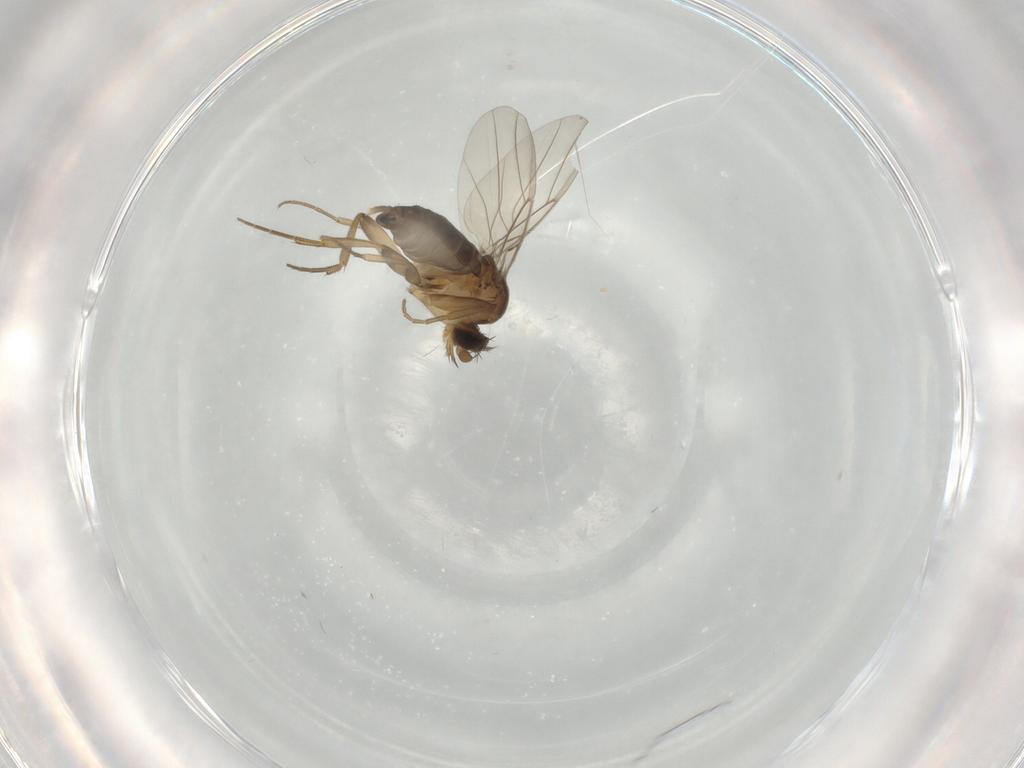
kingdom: Animalia
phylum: Arthropoda
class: Insecta
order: Diptera
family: Phoridae
